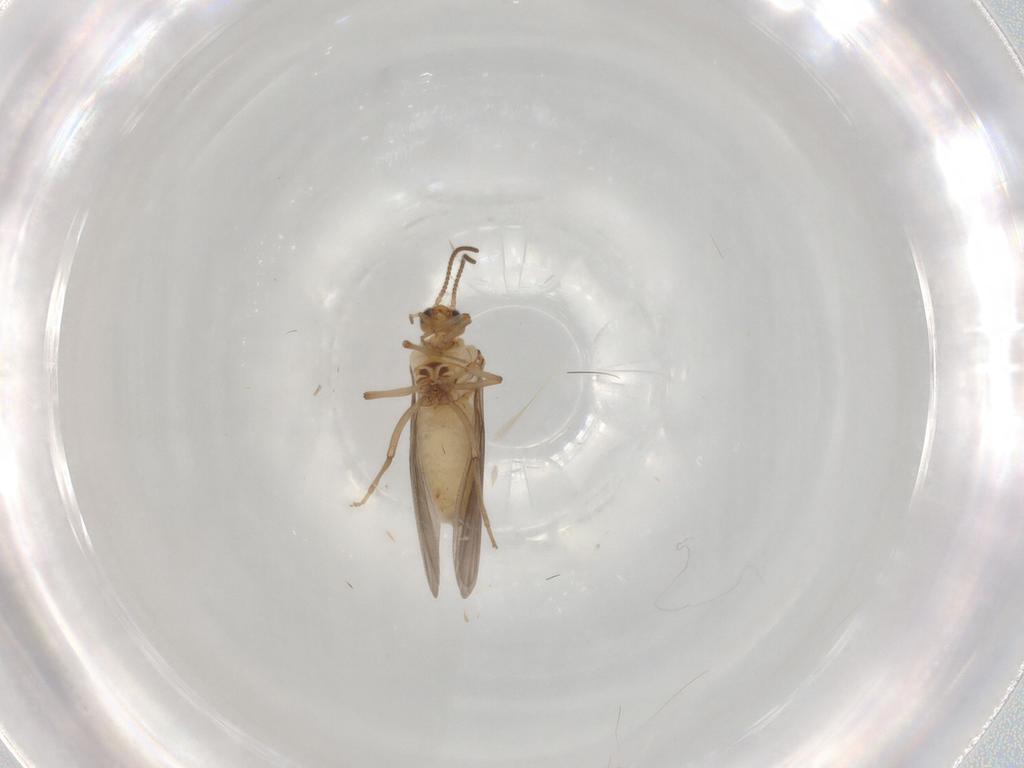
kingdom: Animalia
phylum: Arthropoda
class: Insecta
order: Neuroptera
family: Coniopterygidae
